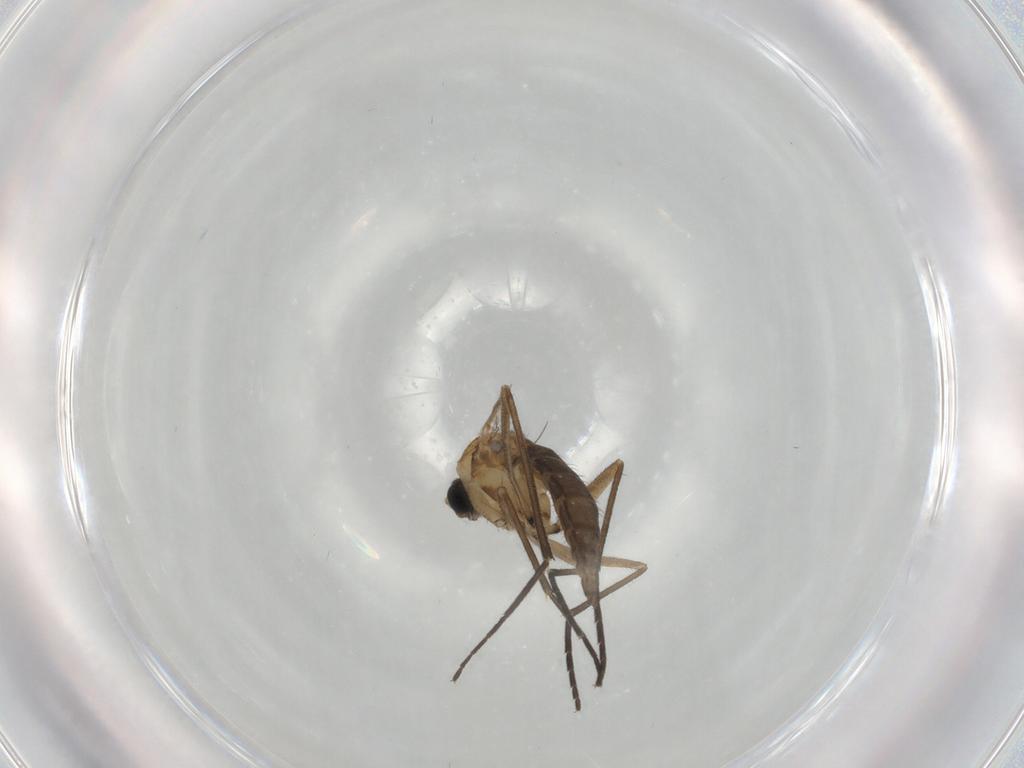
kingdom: Animalia
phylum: Arthropoda
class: Insecta
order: Diptera
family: Sciaridae
